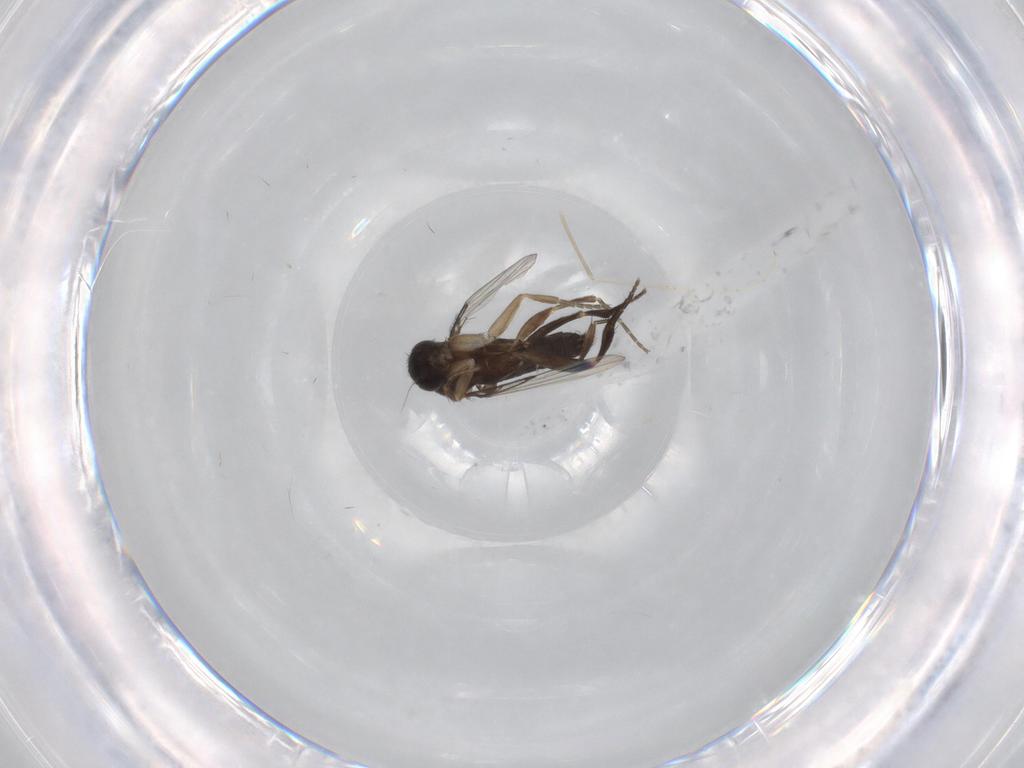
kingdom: Animalia
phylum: Arthropoda
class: Insecta
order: Diptera
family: Phoridae
